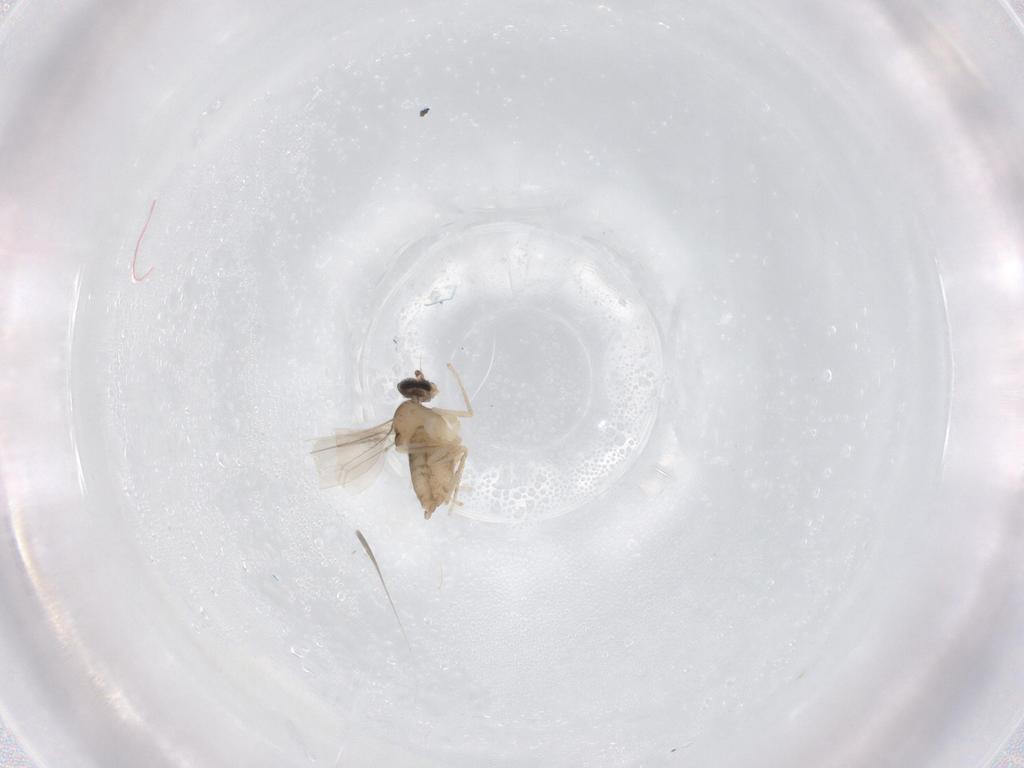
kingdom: Animalia
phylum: Arthropoda
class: Insecta
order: Diptera
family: Cecidomyiidae
